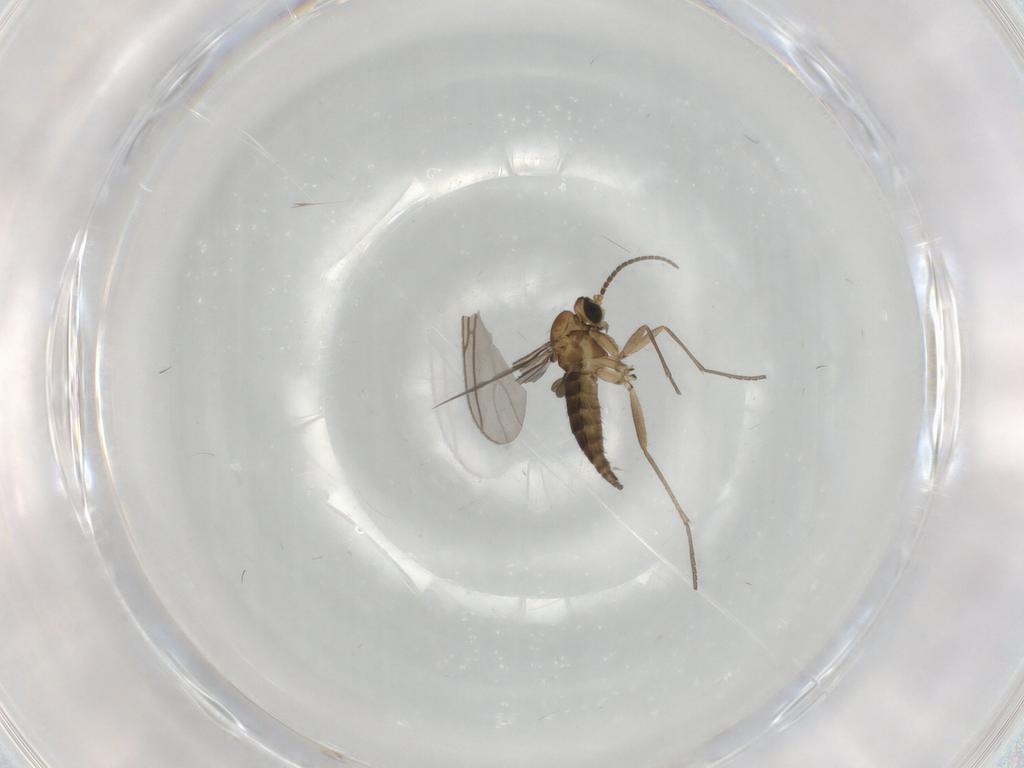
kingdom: Animalia
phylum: Arthropoda
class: Insecta
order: Diptera
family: Sciaridae
